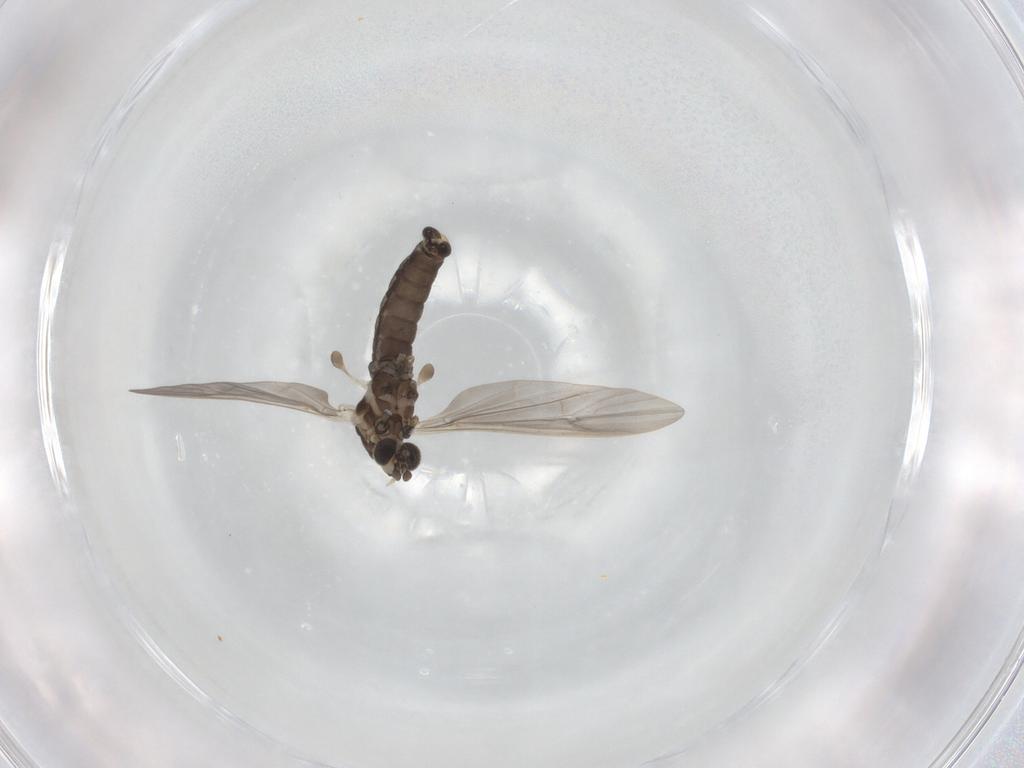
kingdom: Animalia
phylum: Arthropoda
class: Insecta
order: Diptera
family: Limoniidae
